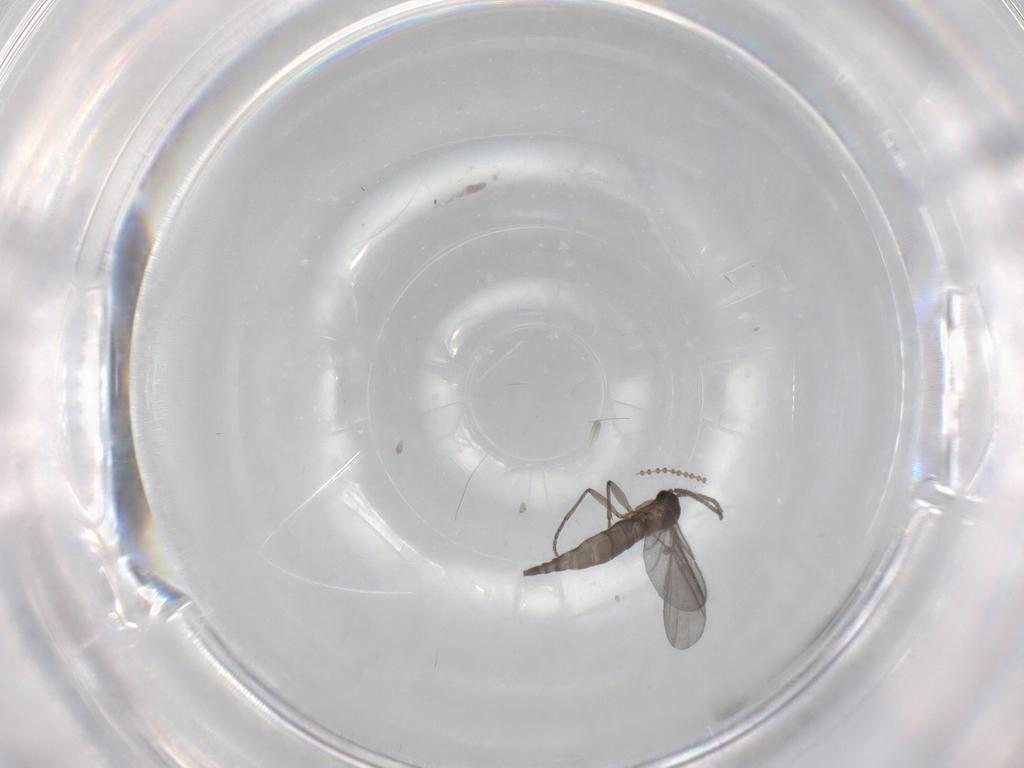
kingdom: Animalia
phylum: Arthropoda
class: Insecta
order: Diptera
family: Sciaridae
